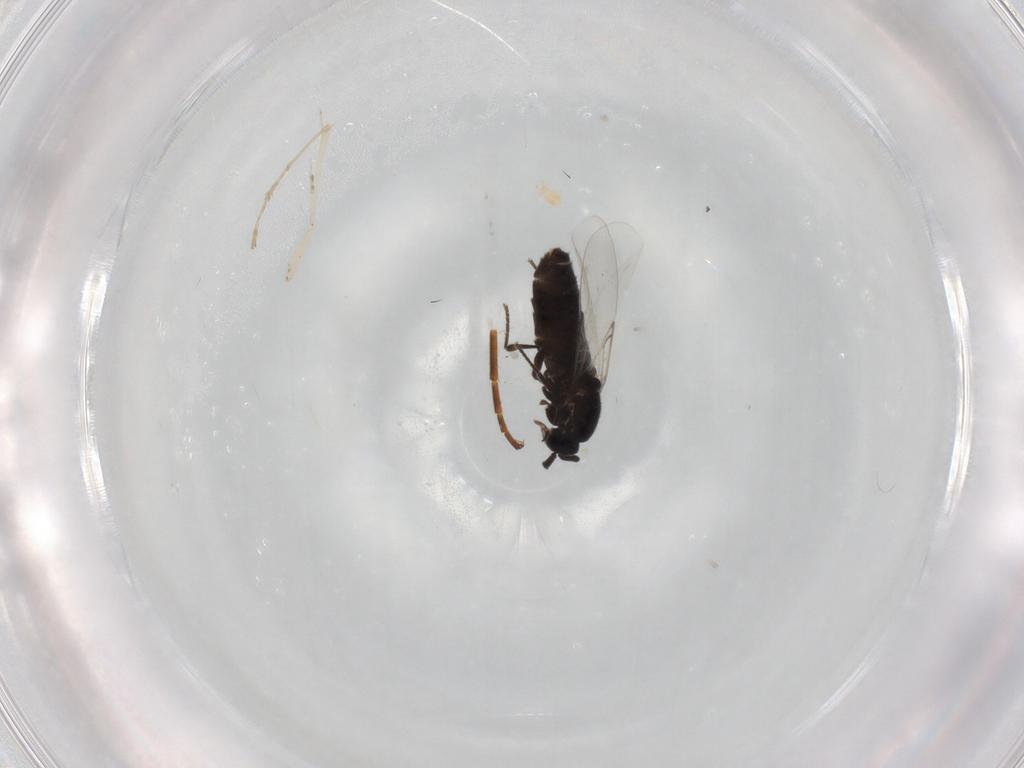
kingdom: Animalia
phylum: Arthropoda
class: Insecta
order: Diptera
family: Scatopsidae
